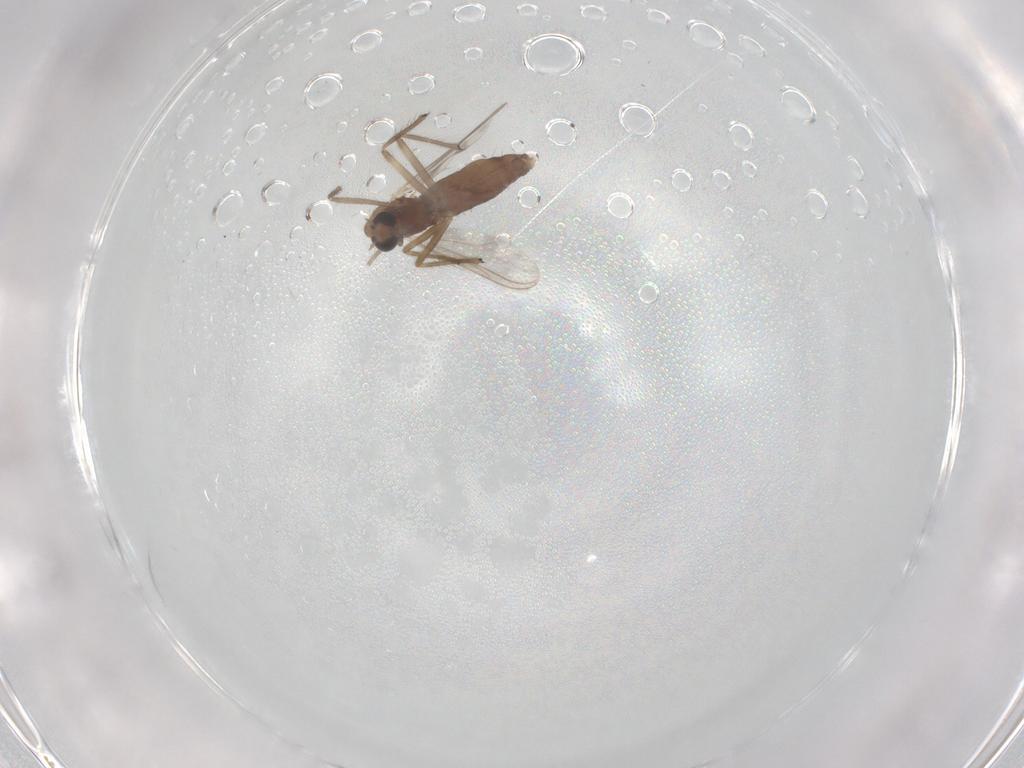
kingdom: Animalia
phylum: Arthropoda
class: Insecta
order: Diptera
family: Chironomidae
